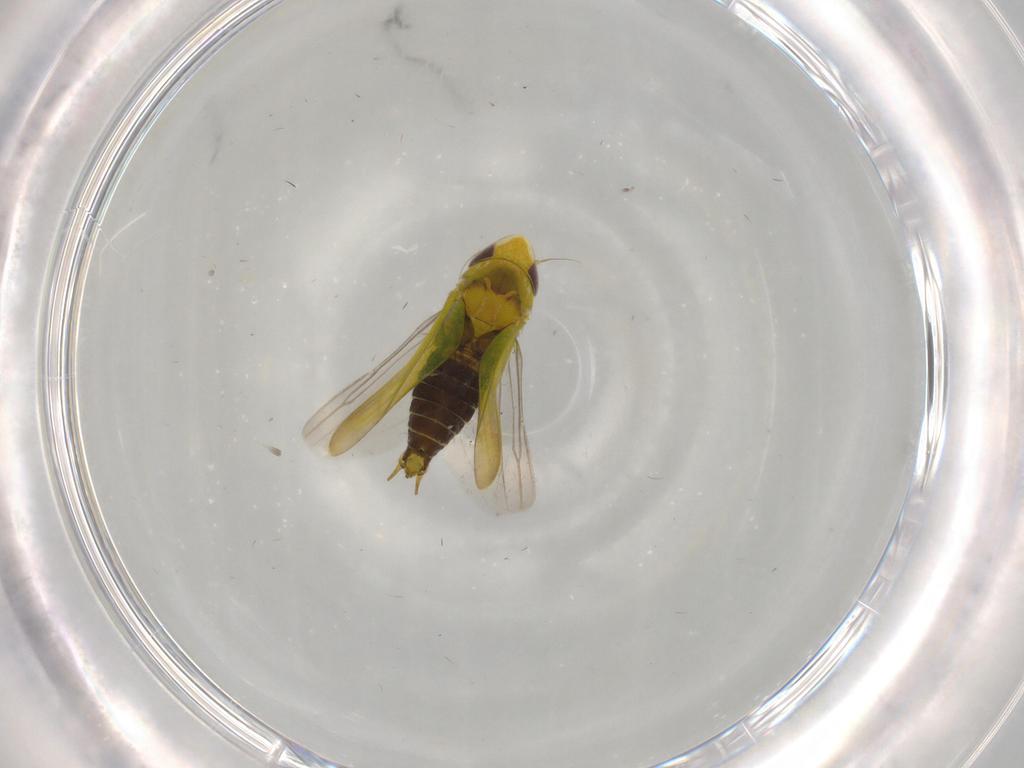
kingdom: Animalia
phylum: Arthropoda
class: Insecta
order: Hemiptera
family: Cicadellidae
